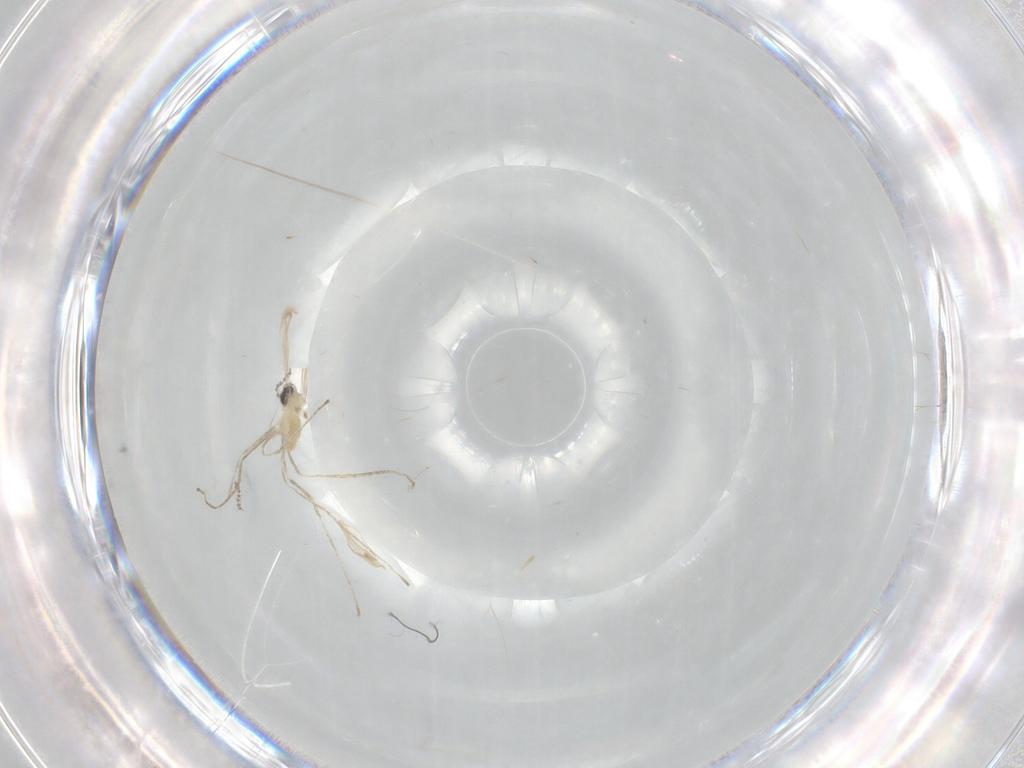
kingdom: Animalia
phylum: Arthropoda
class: Insecta
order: Diptera
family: Cecidomyiidae
